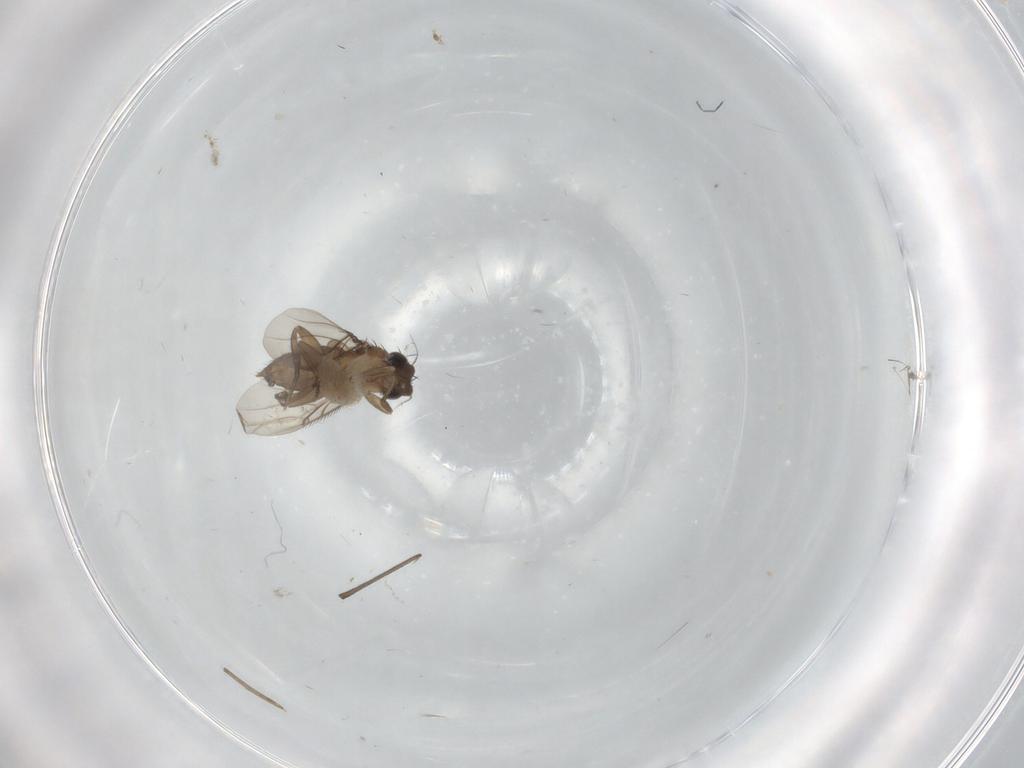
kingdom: Animalia
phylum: Arthropoda
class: Insecta
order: Diptera
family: Phoridae
